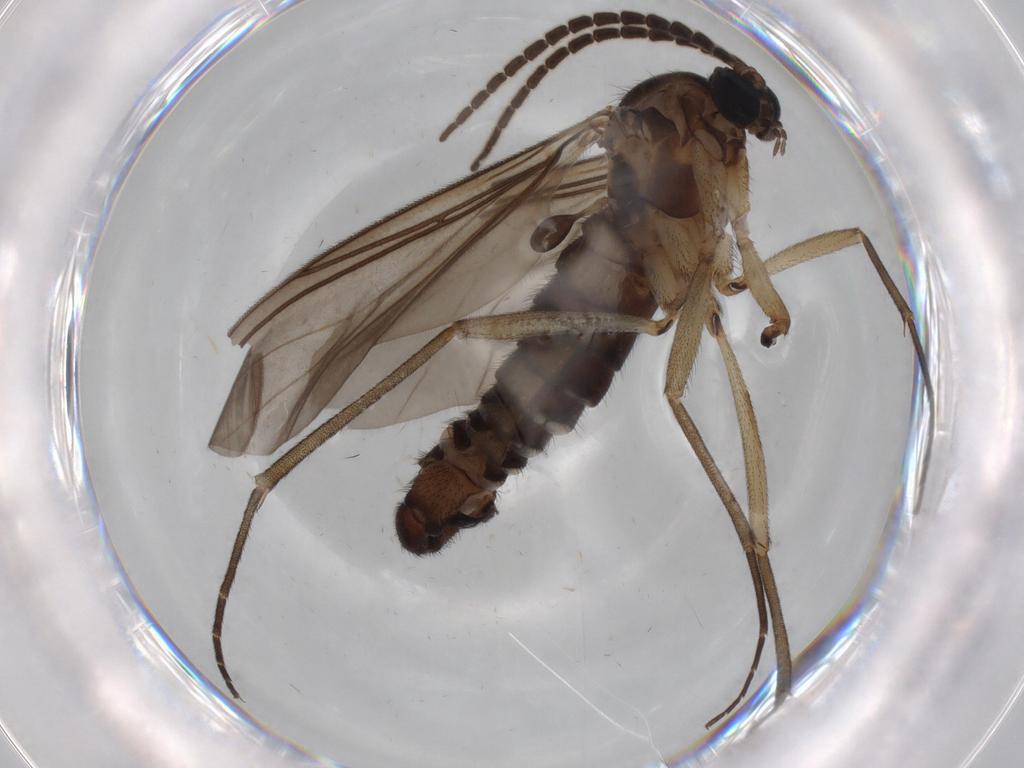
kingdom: Animalia
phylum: Arthropoda
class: Insecta
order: Diptera
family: Sciaridae
